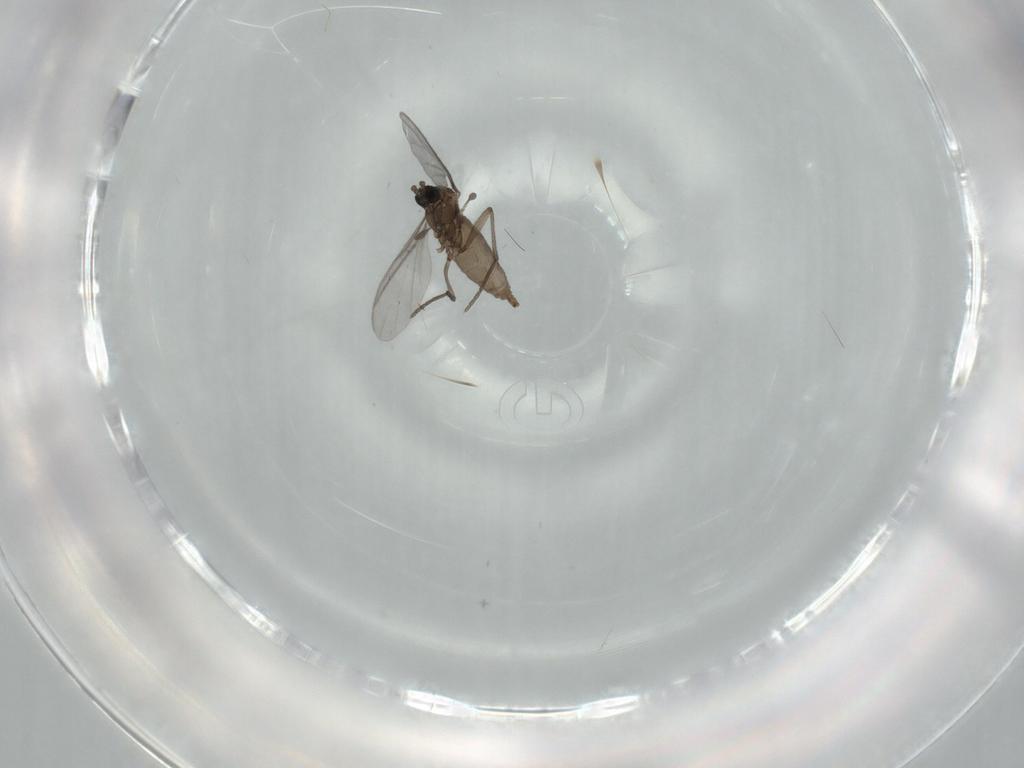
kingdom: Animalia
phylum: Arthropoda
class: Insecta
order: Diptera
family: Sciaridae
